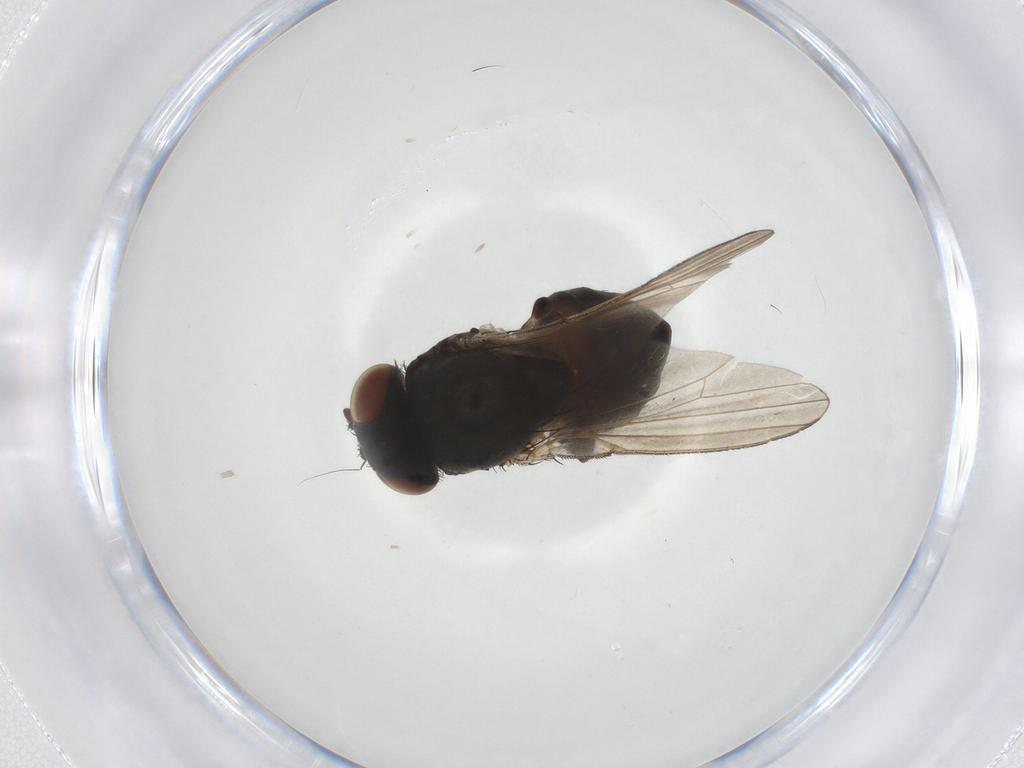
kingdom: Animalia
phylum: Arthropoda
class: Insecta
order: Diptera
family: Milichiidae
